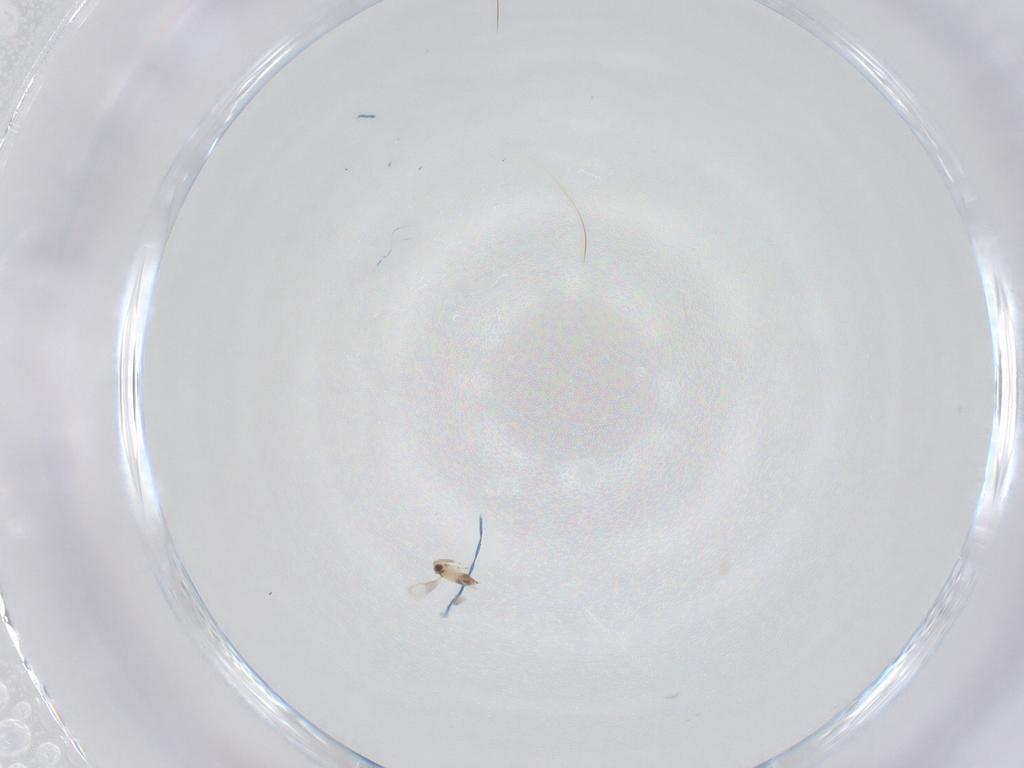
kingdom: Animalia
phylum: Arthropoda
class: Insecta
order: Hymenoptera
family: Aphelinidae
